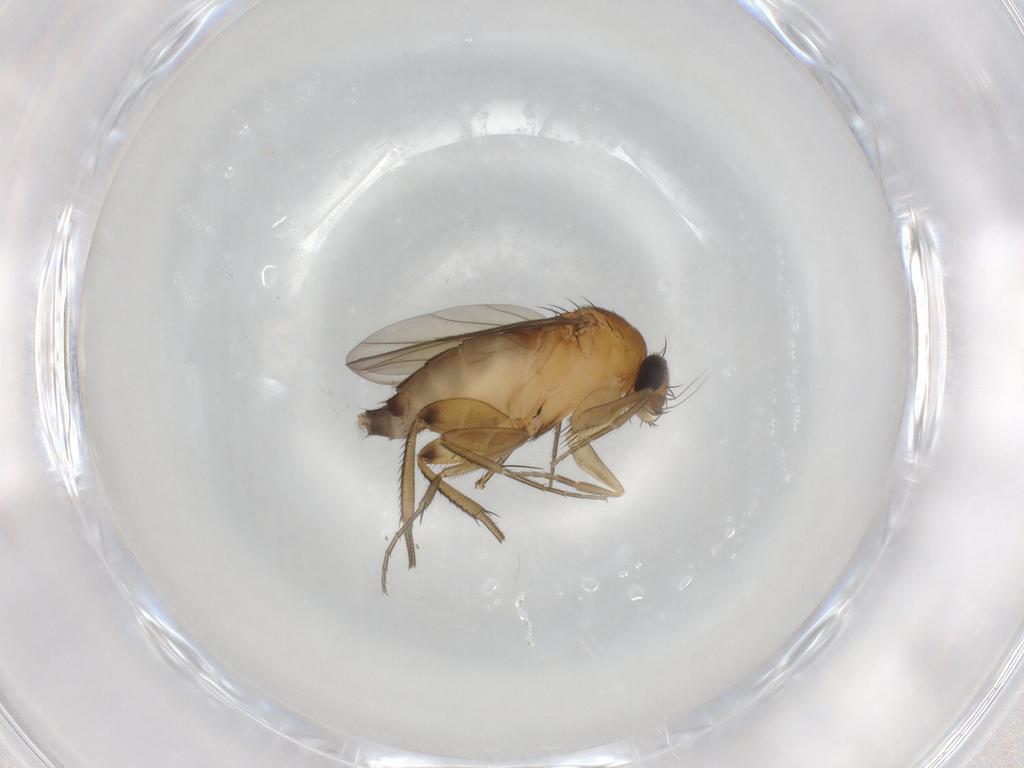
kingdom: Animalia
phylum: Arthropoda
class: Insecta
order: Diptera
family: Phoridae
